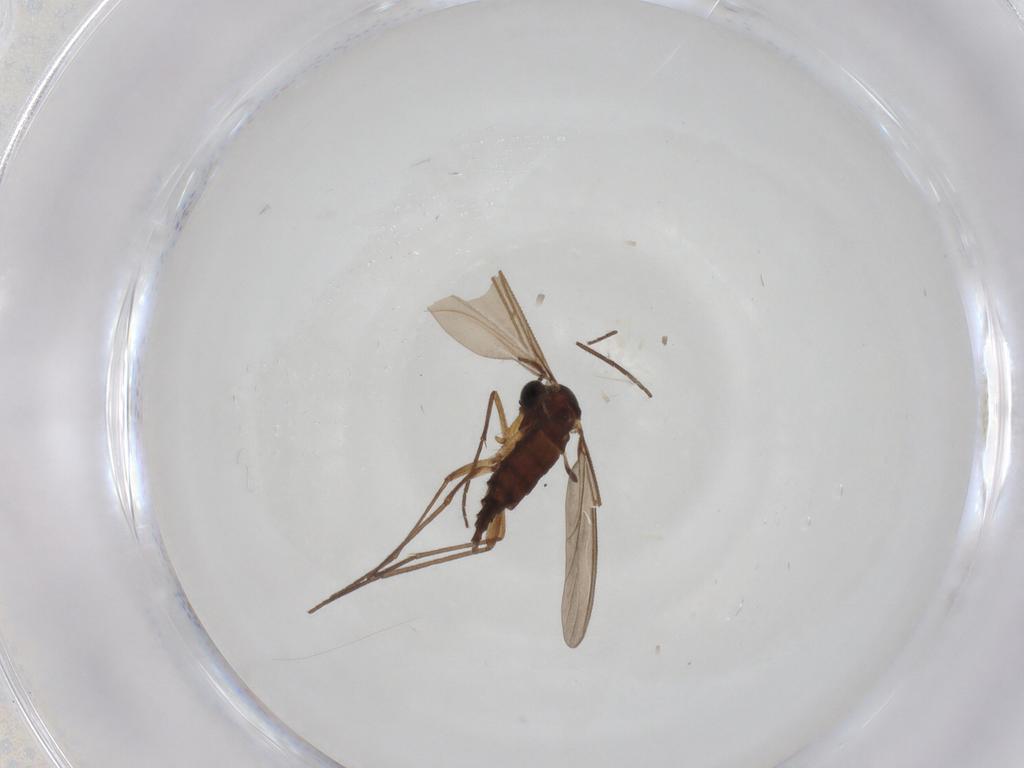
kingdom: Animalia
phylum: Arthropoda
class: Insecta
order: Diptera
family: Sciaridae
